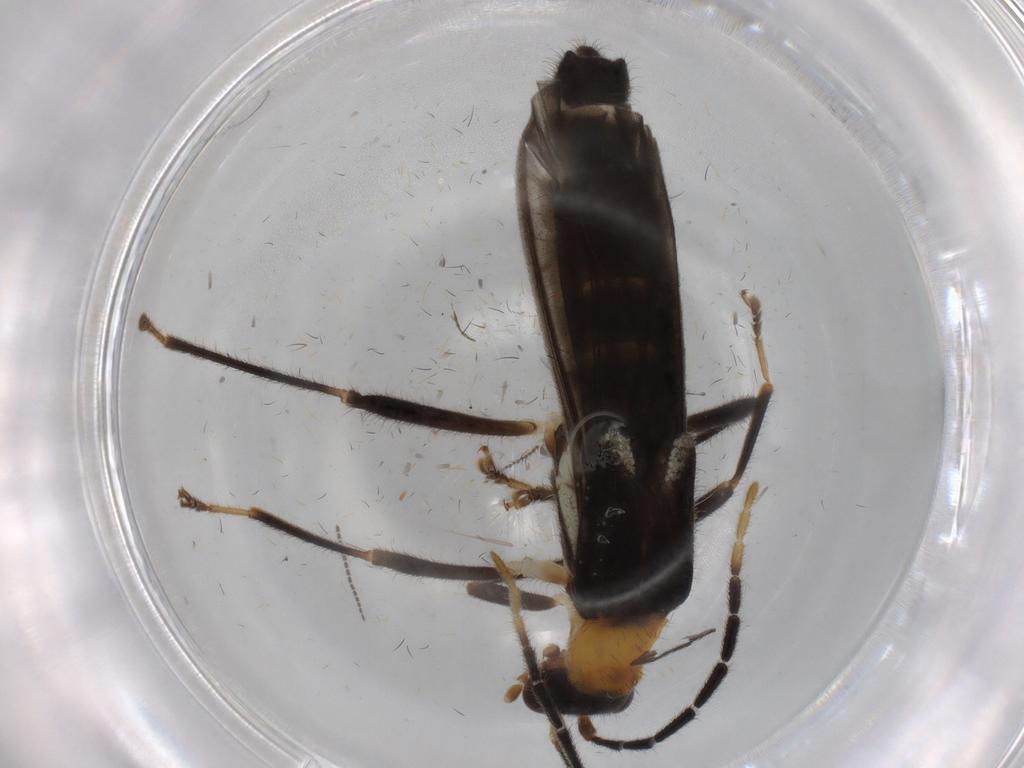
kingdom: Animalia
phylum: Arthropoda
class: Insecta
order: Coleoptera
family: Cantharidae
